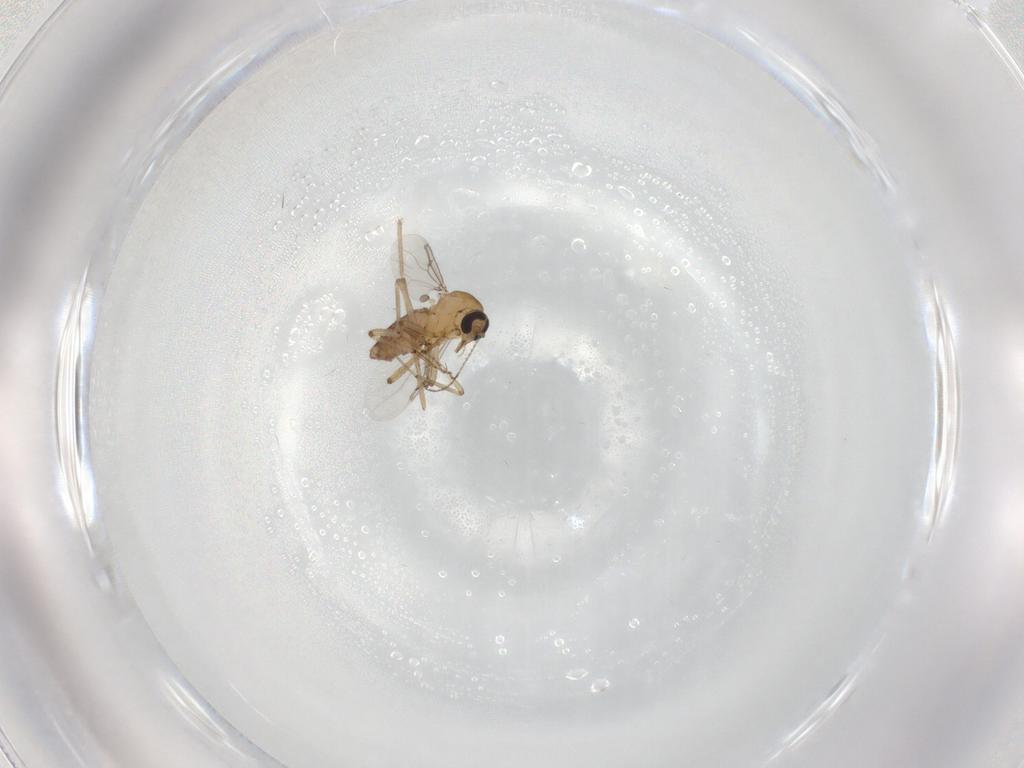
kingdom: Animalia
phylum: Arthropoda
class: Insecta
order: Diptera
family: Ceratopogonidae
